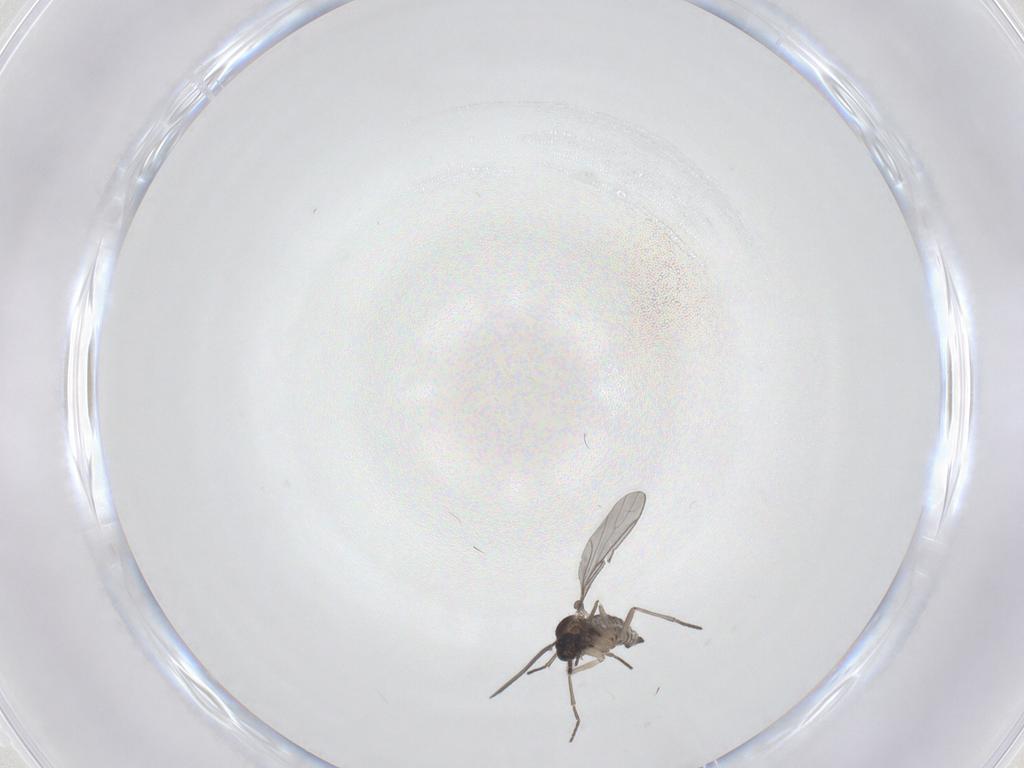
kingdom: Animalia
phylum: Arthropoda
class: Insecta
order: Diptera
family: Sciaridae
